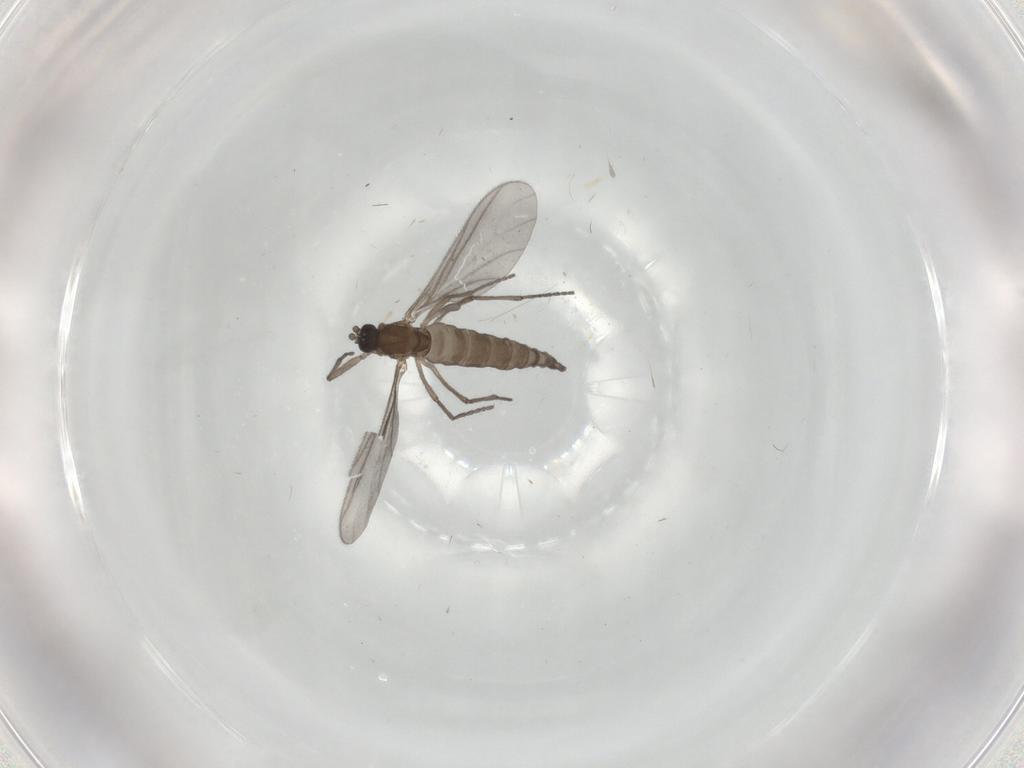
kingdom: Animalia
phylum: Arthropoda
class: Insecta
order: Diptera
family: Sciaridae
